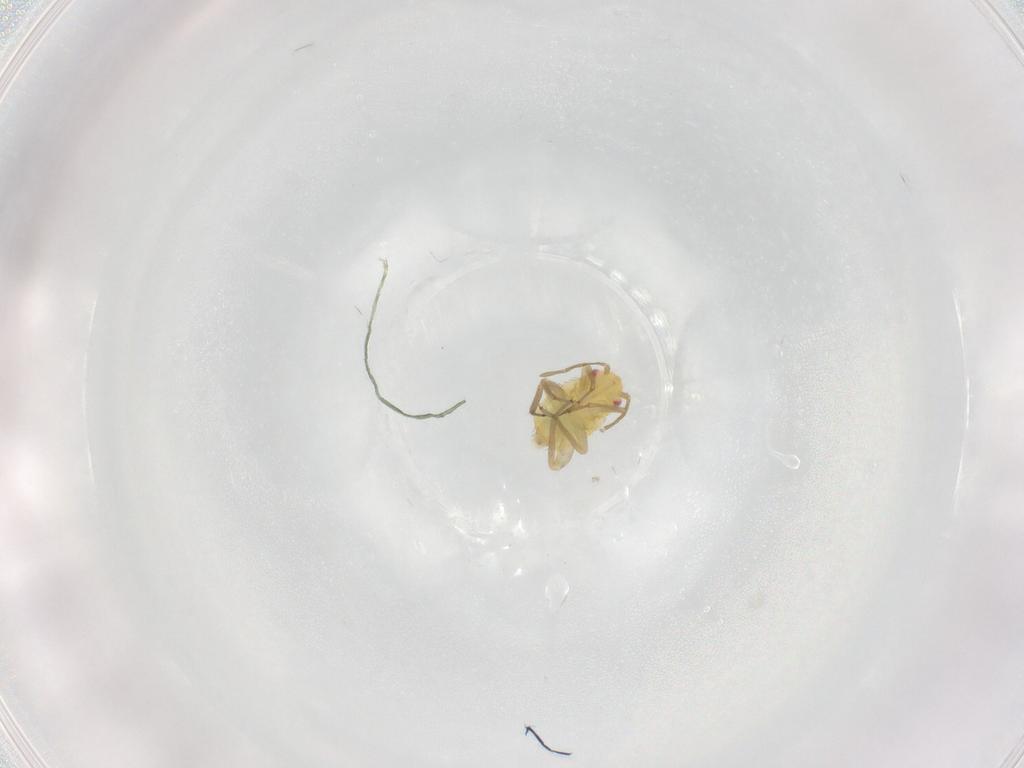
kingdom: Animalia
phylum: Arthropoda
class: Insecta
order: Hemiptera
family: Miridae
